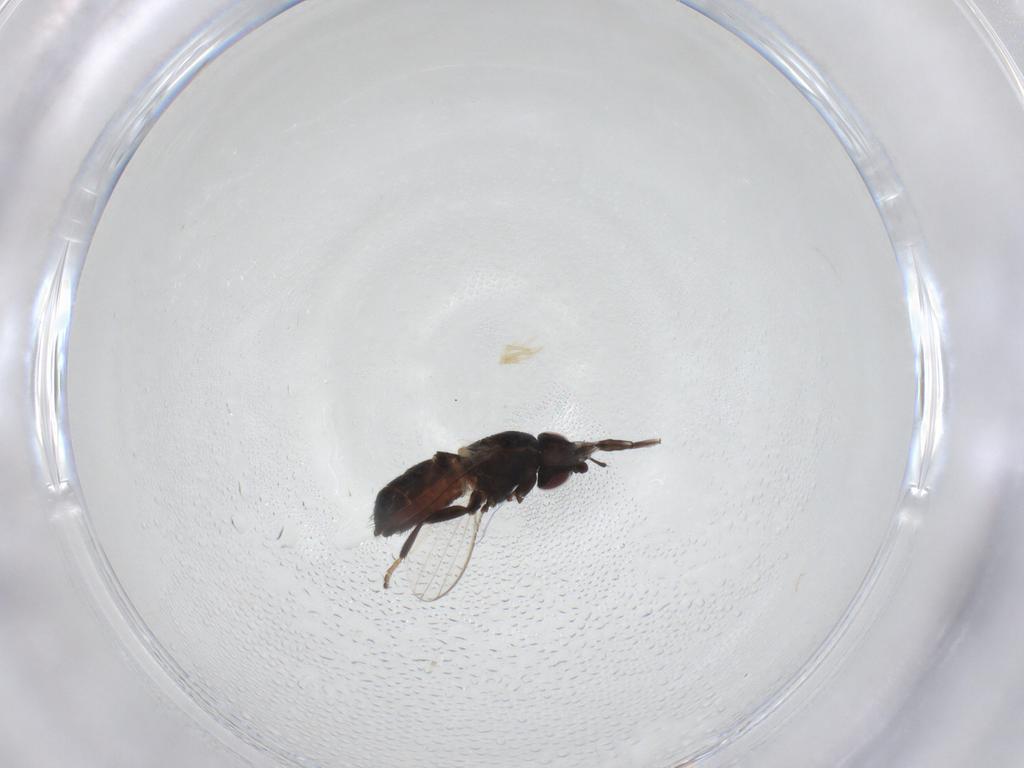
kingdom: Animalia
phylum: Arthropoda
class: Insecta
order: Diptera
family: Milichiidae
